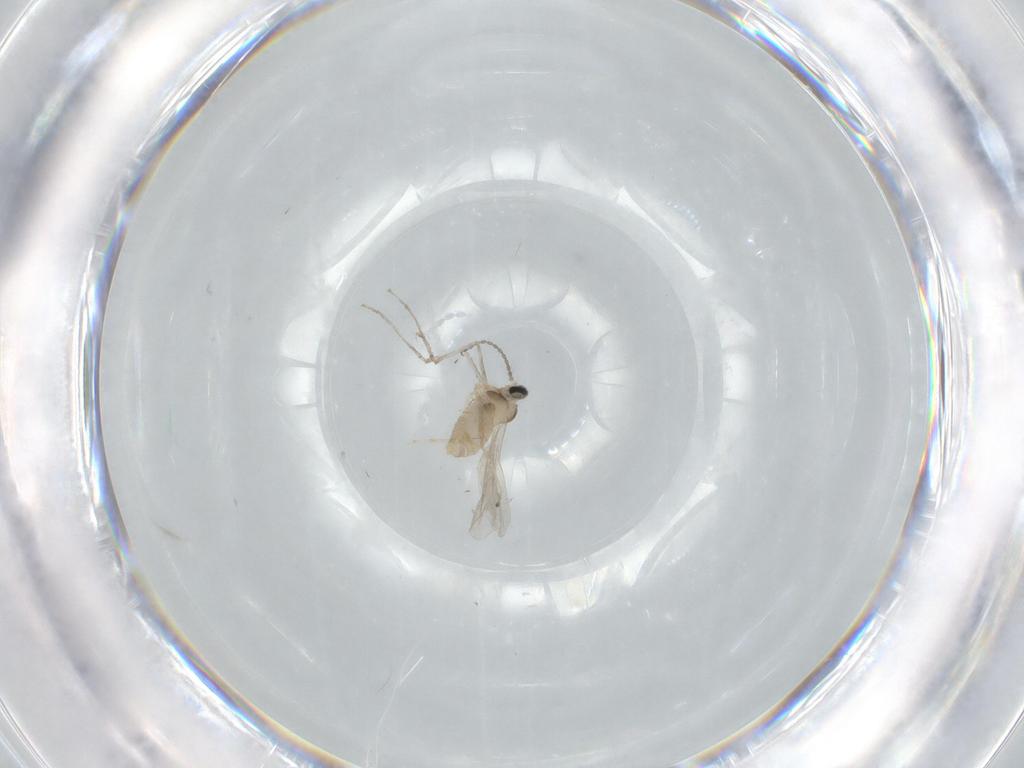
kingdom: Animalia
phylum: Arthropoda
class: Insecta
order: Diptera
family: Cecidomyiidae
